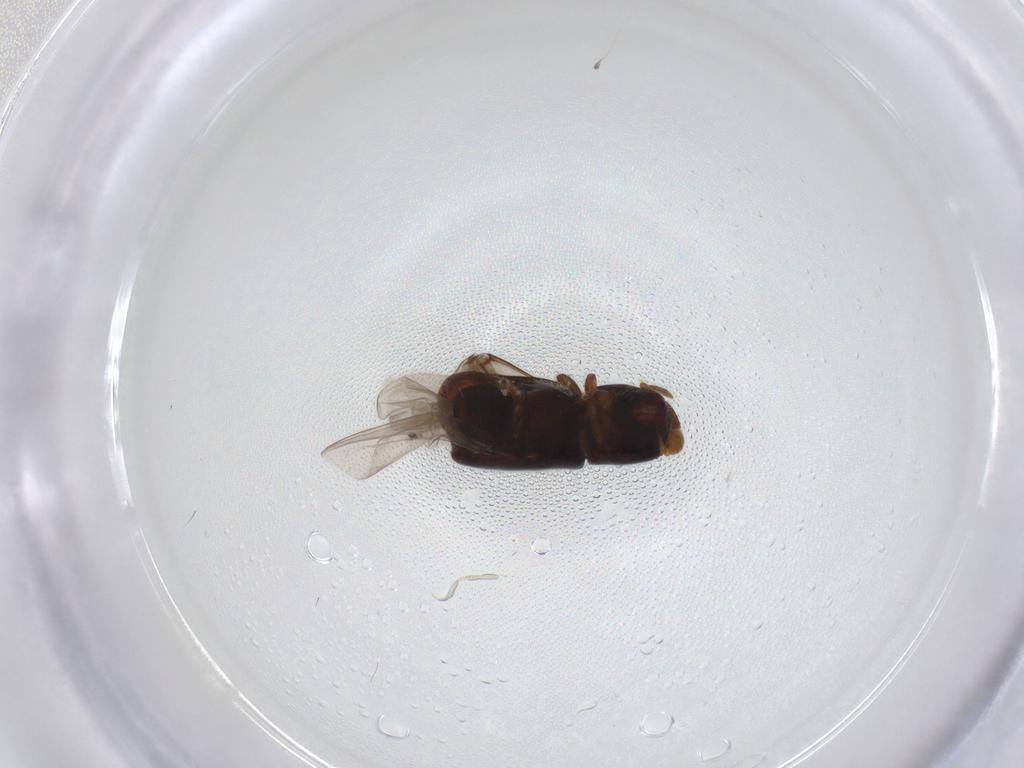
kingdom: Animalia
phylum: Arthropoda
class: Insecta
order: Coleoptera
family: Curculionidae
